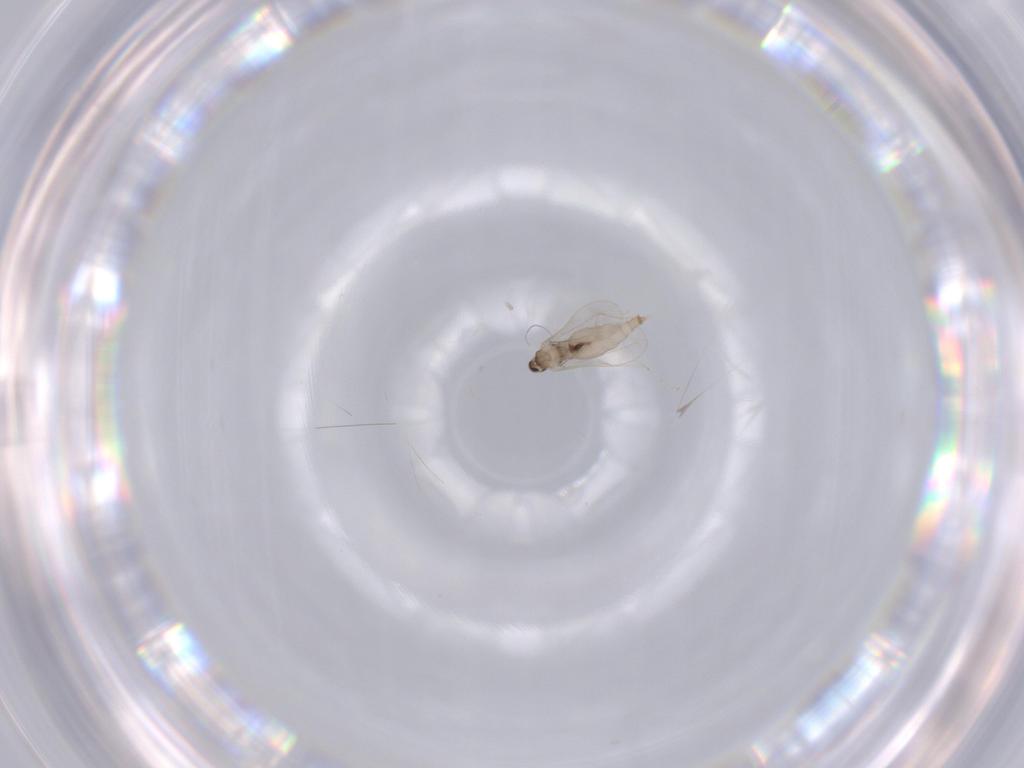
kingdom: Animalia
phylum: Arthropoda
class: Insecta
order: Diptera
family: Cecidomyiidae
